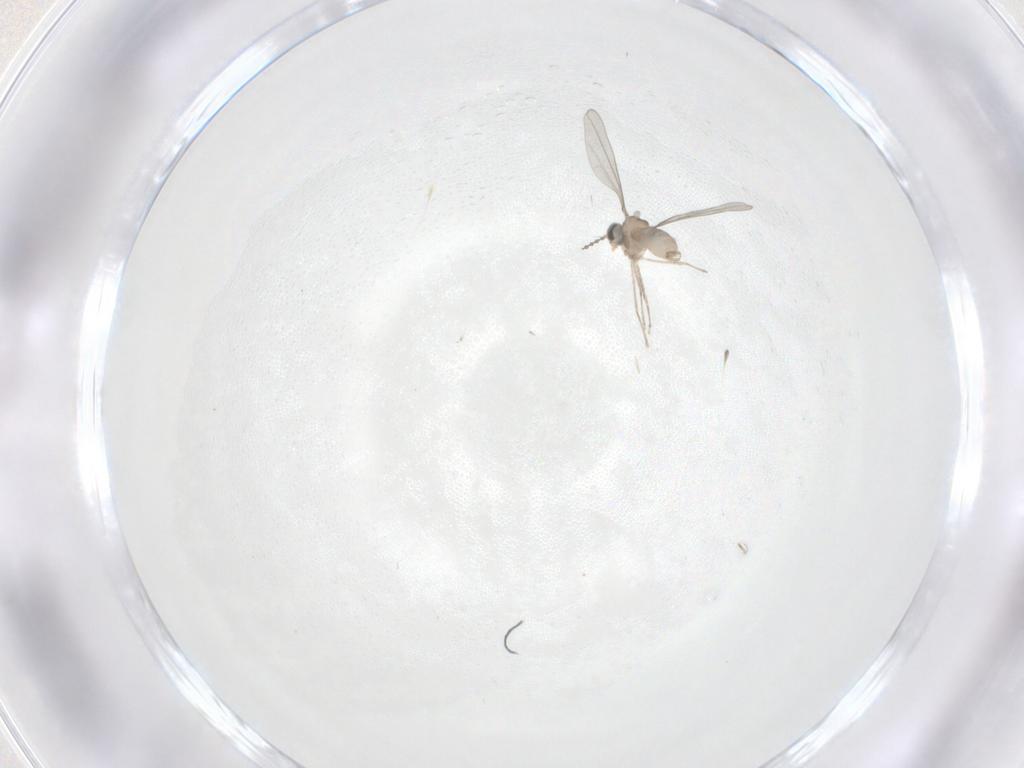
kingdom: Animalia
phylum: Arthropoda
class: Insecta
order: Diptera
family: Cecidomyiidae
